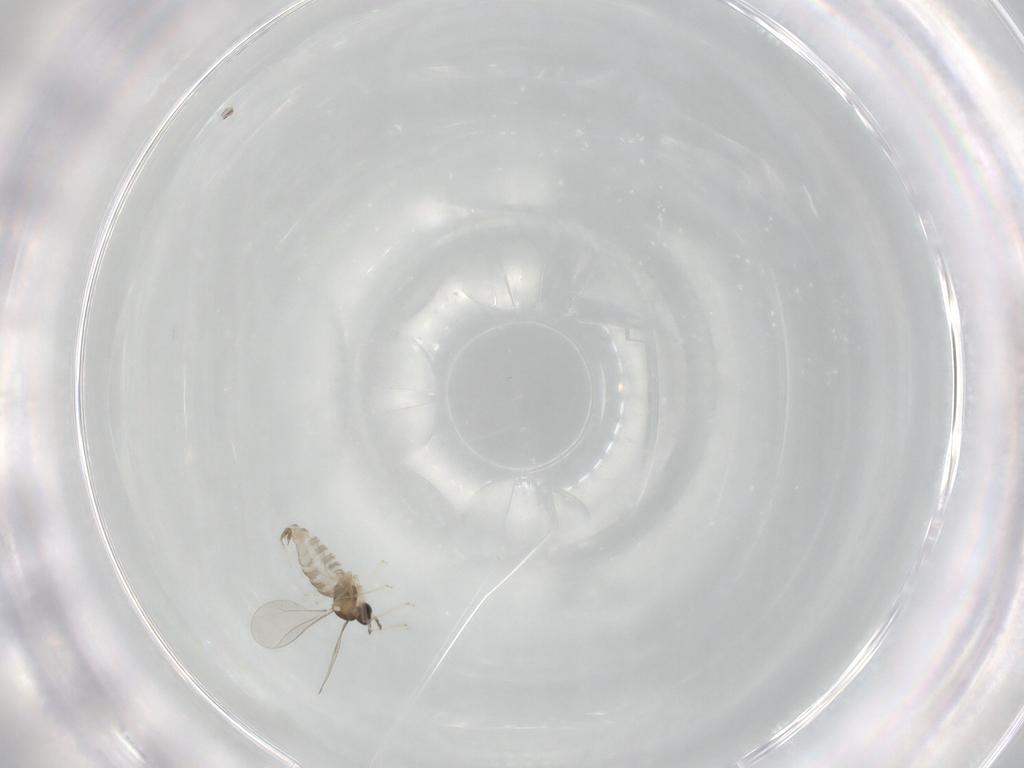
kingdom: Animalia
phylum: Arthropoda
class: Insecta
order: Diptera
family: Cecidomyiidae
